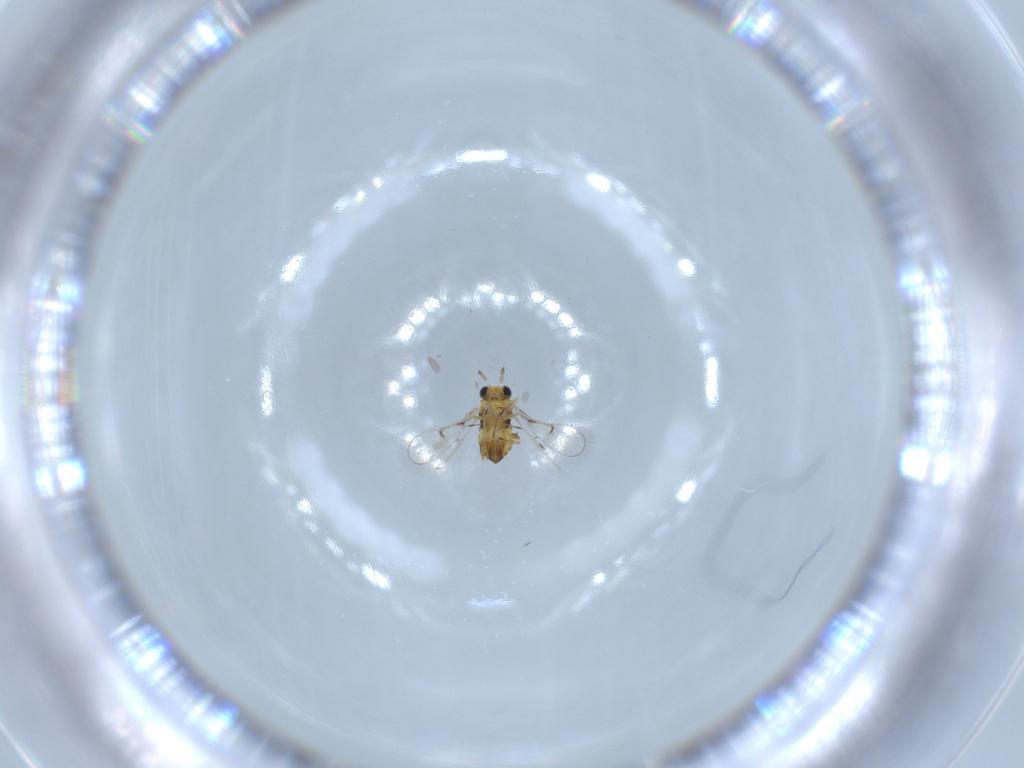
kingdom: Animalia
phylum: Arthropoda
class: Insecta
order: Hymenoptera
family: Trichogrammatidae
